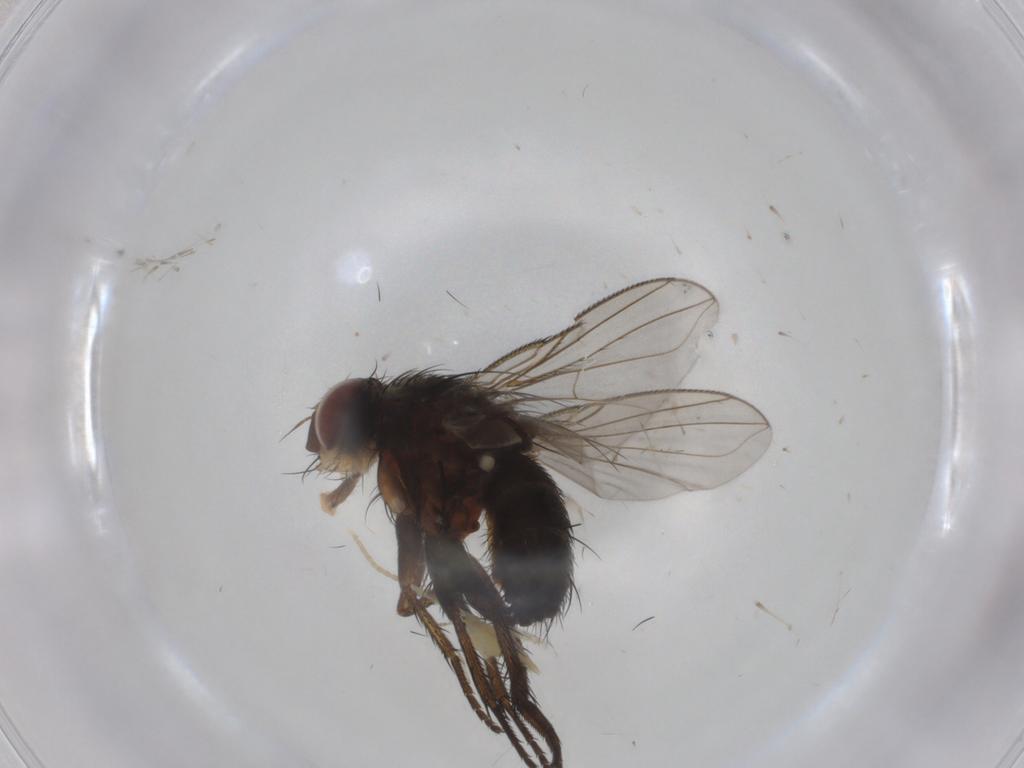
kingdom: Animalia
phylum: Arthropoda
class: Insecta
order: Diptera
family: Tachinidae
